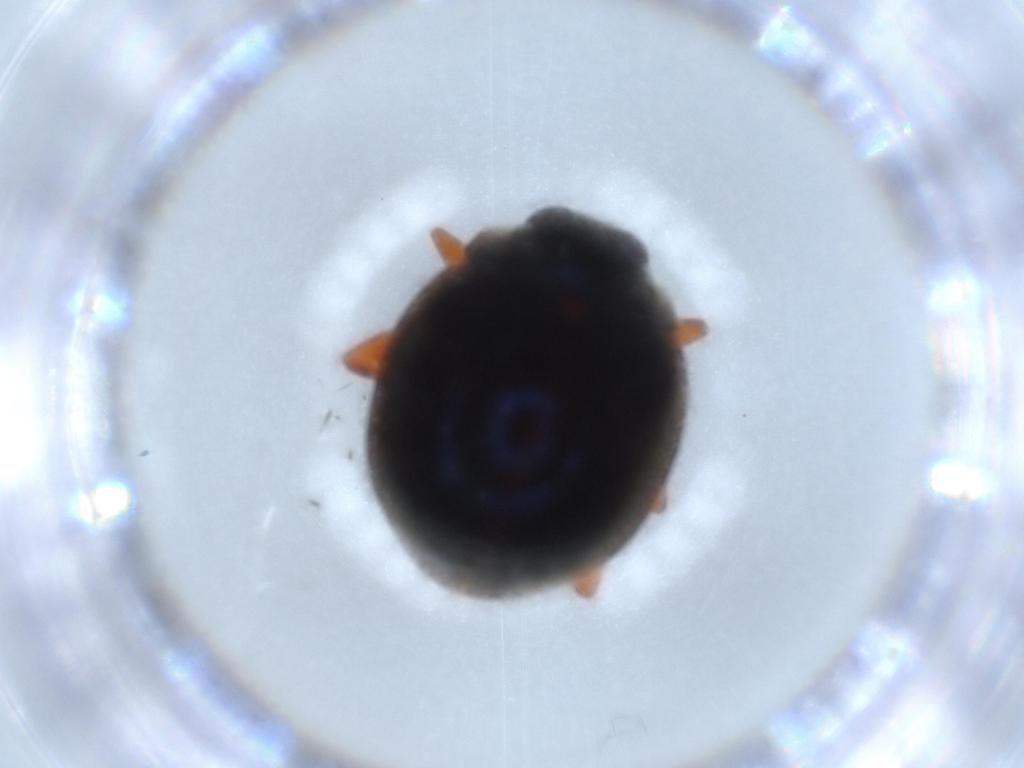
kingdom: Animalia
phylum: Arthropoda
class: Insecta
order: Coleoptera
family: Coccinellidae
